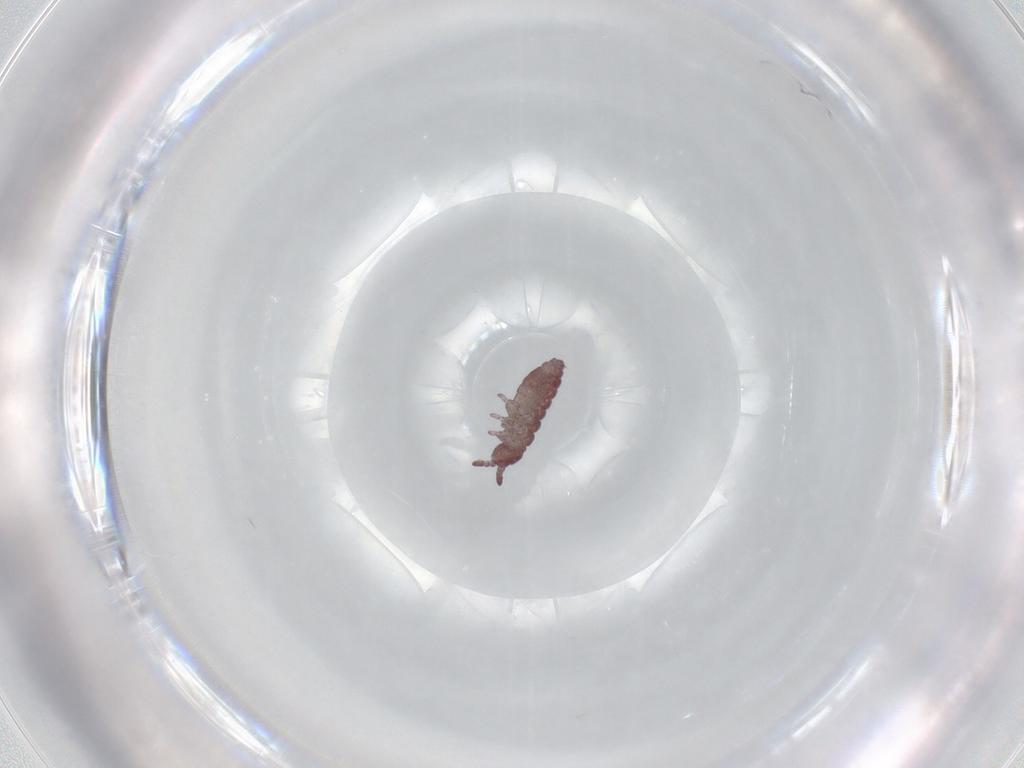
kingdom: Animalia
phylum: Arthropoda
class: Collembola
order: Poduromorpha
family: Hypogastruridae
